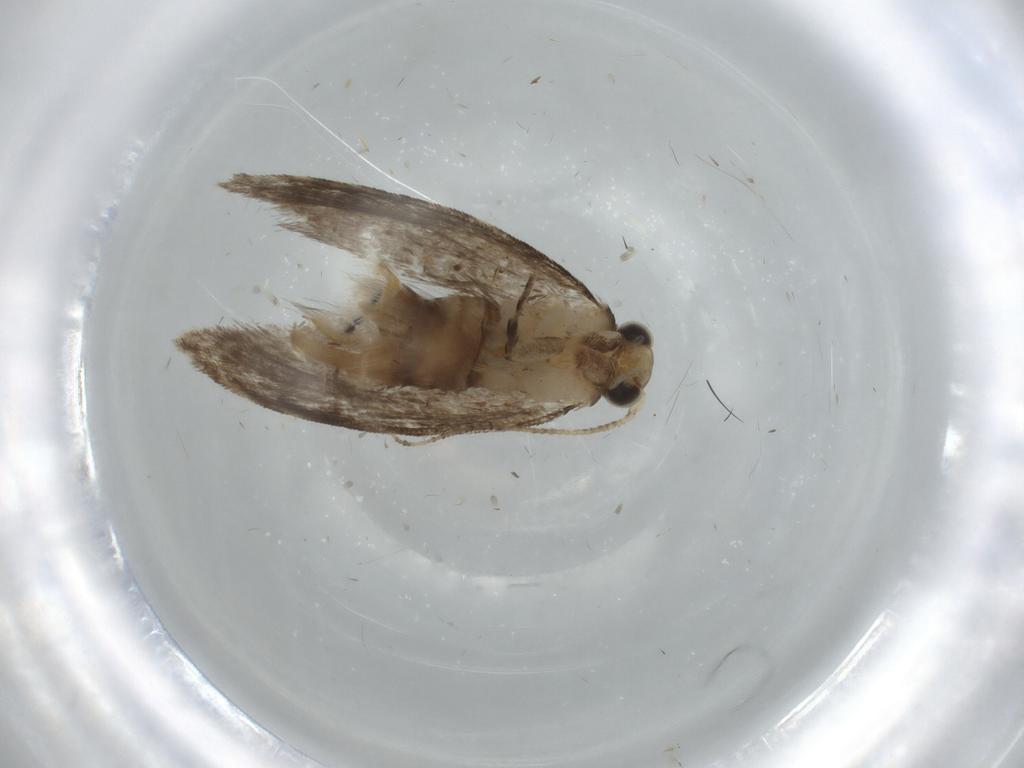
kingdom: Animalia
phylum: Arthropoda
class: Insecta
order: Lepidoptera
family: Tineidae
